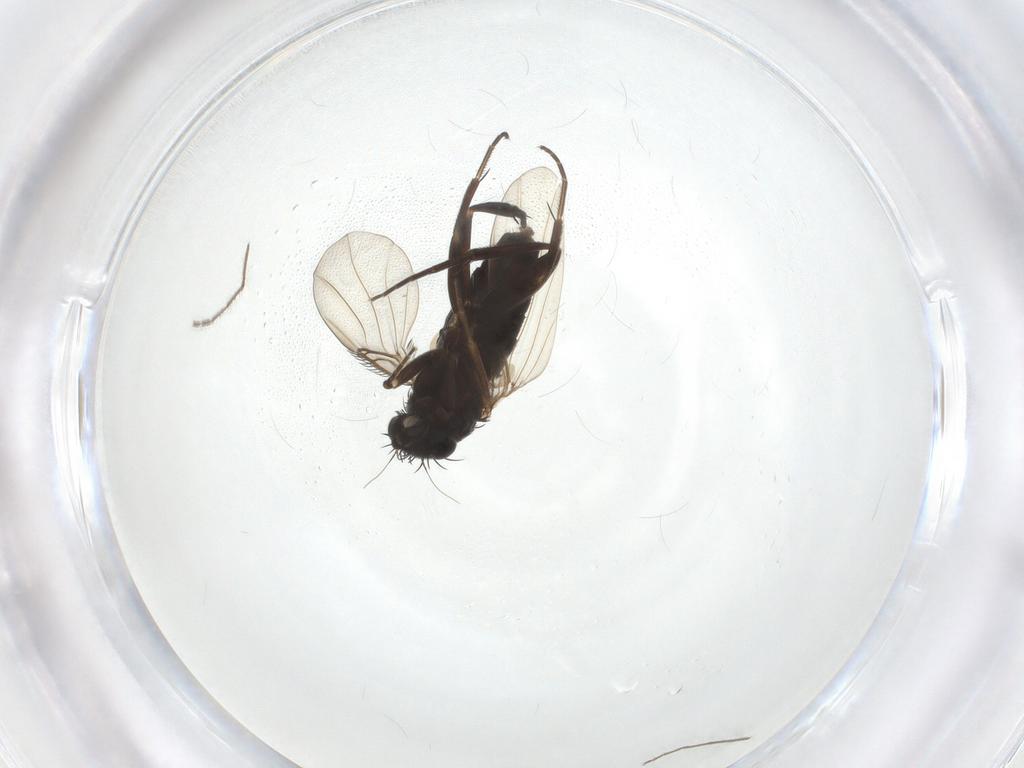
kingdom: Animalia
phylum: Arthropoda
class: Insecta
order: Diptera
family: Phoridae
